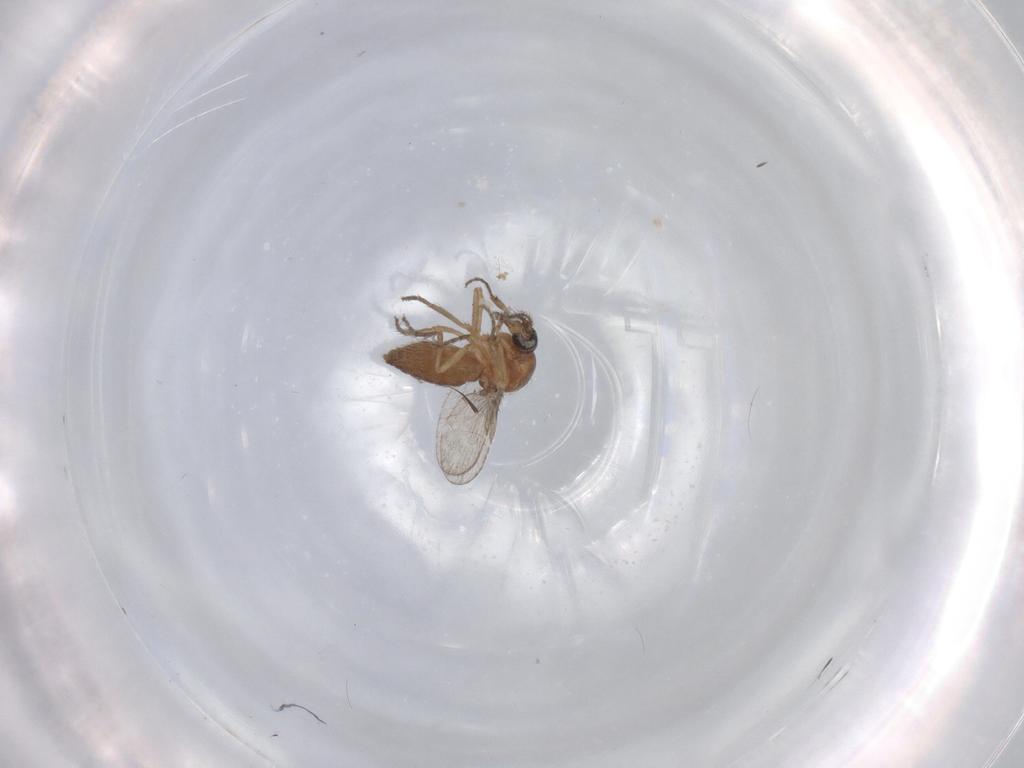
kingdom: Animalia
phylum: Arthropoda
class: Insecta
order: Diptera
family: Ceratopogonidae
